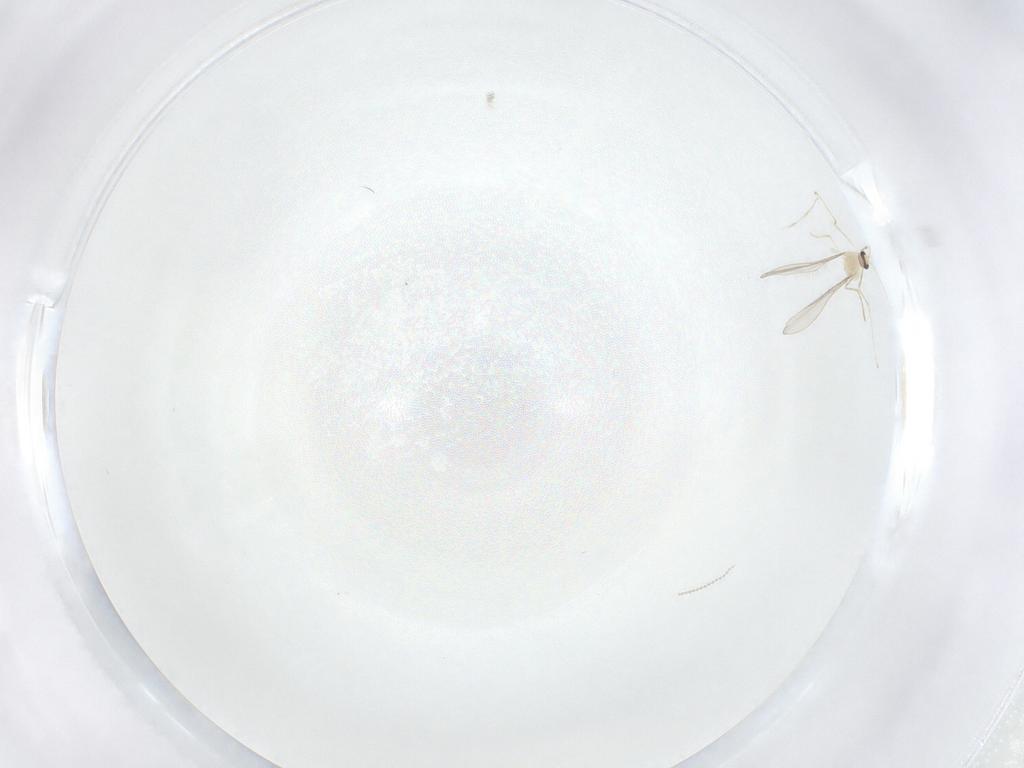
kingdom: Animalia
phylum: Arthropoda
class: Insecta
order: Diptera
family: Cecidomyiidae
